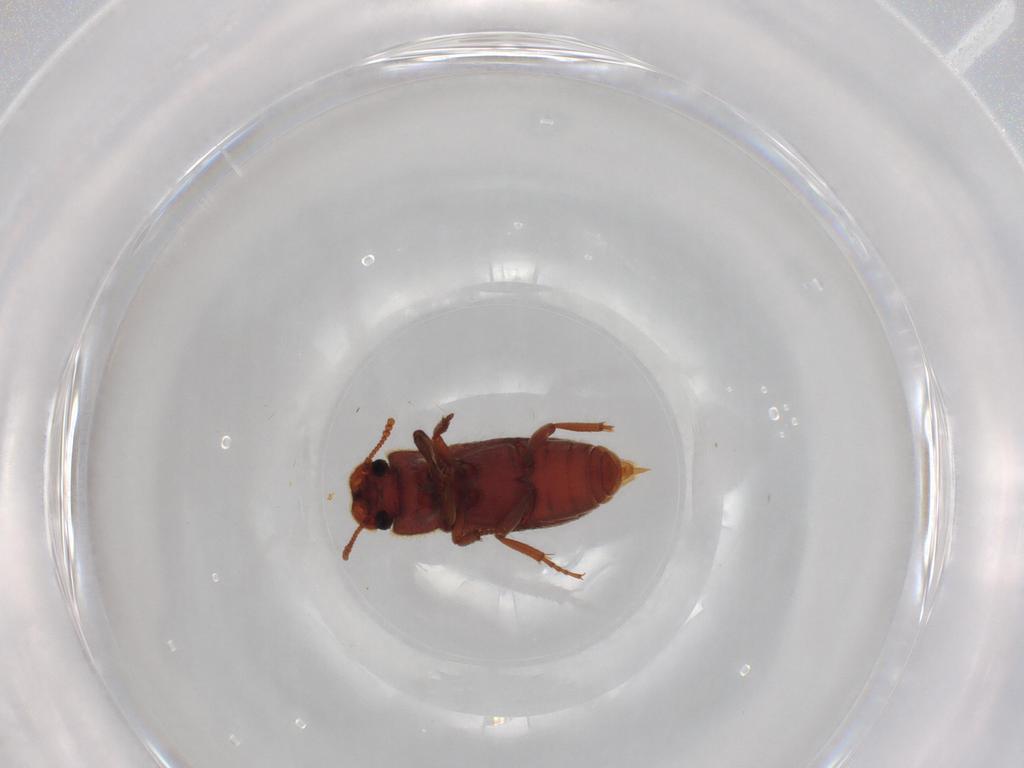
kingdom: Animalia
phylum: Arthropoda
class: Insecta
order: Coleoptera
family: Tenebrionidae
